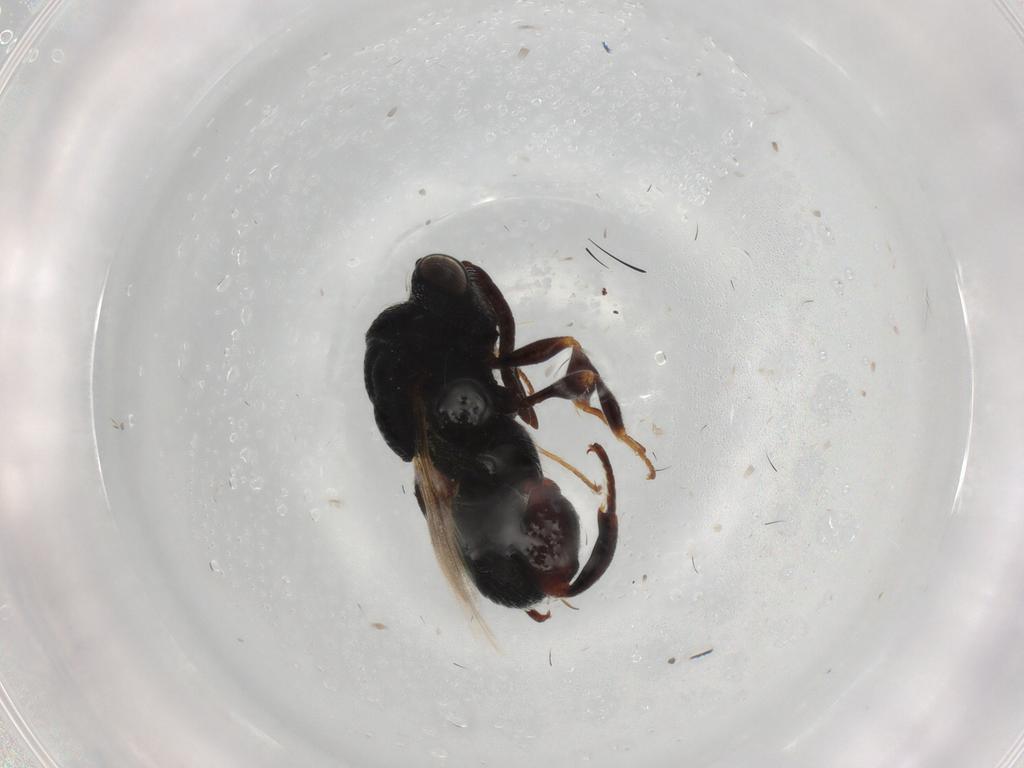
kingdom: Animalia
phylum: Arthropoda
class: Insecta
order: Hymenoptera
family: Chalcididae
